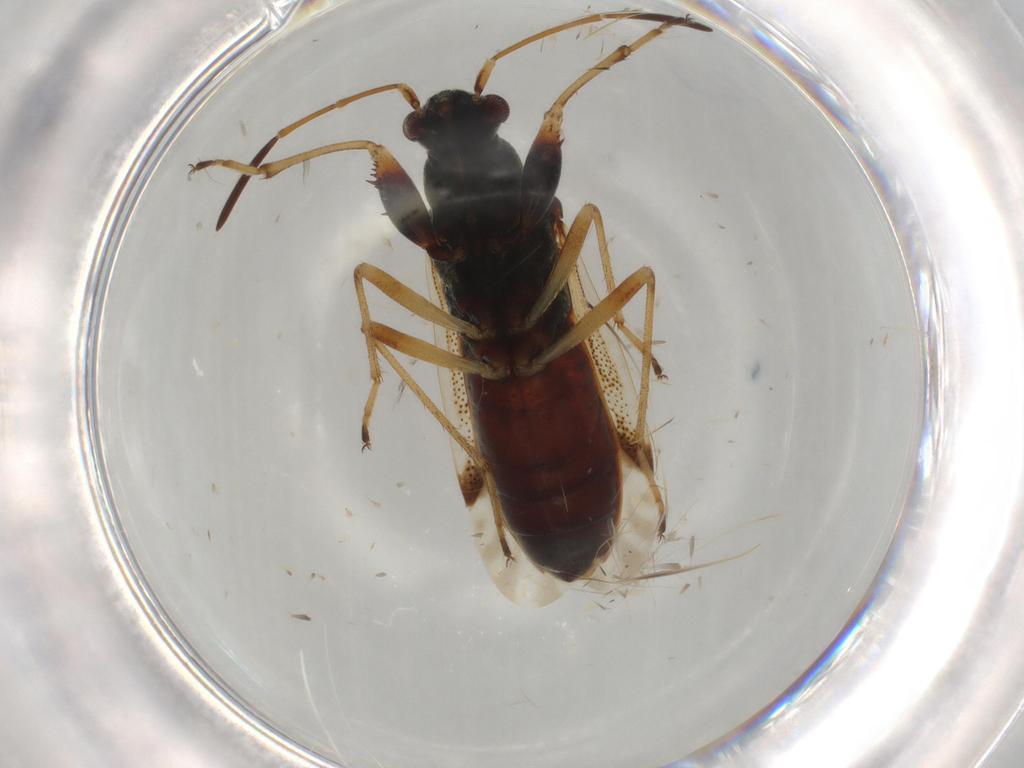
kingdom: Animalia
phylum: Arthropoda
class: Insecta
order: Hemiptera
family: Rhyparochromidae
